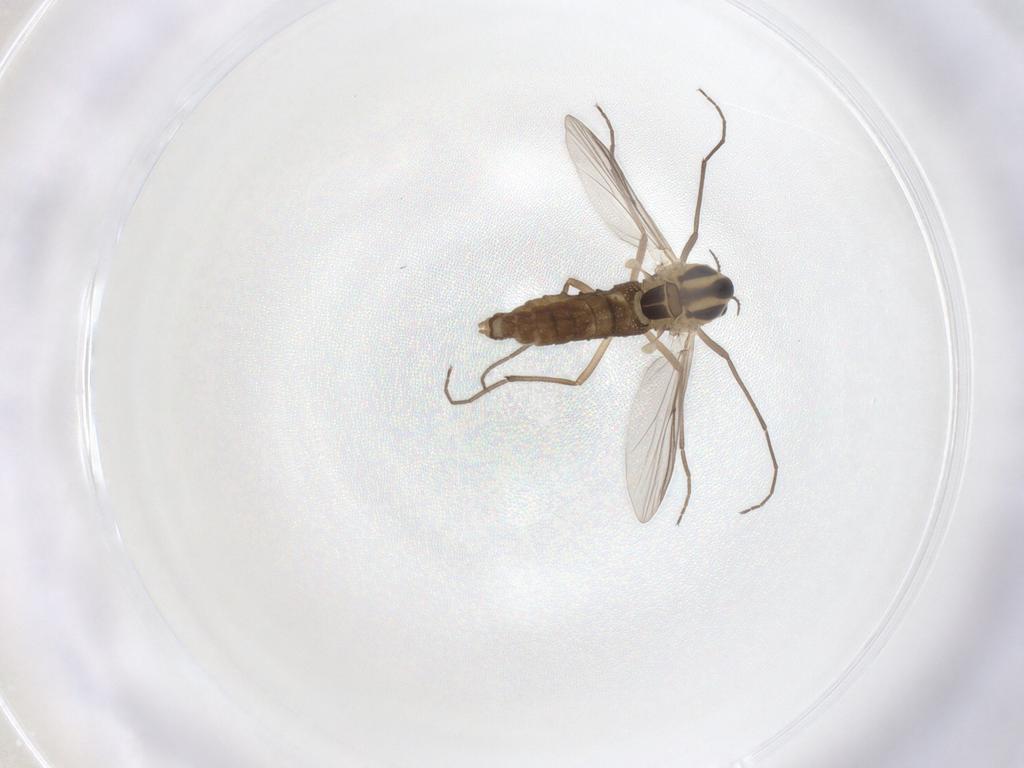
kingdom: Animalia
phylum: Arthropoda
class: Insecta
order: Diptera
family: Chironomidae
